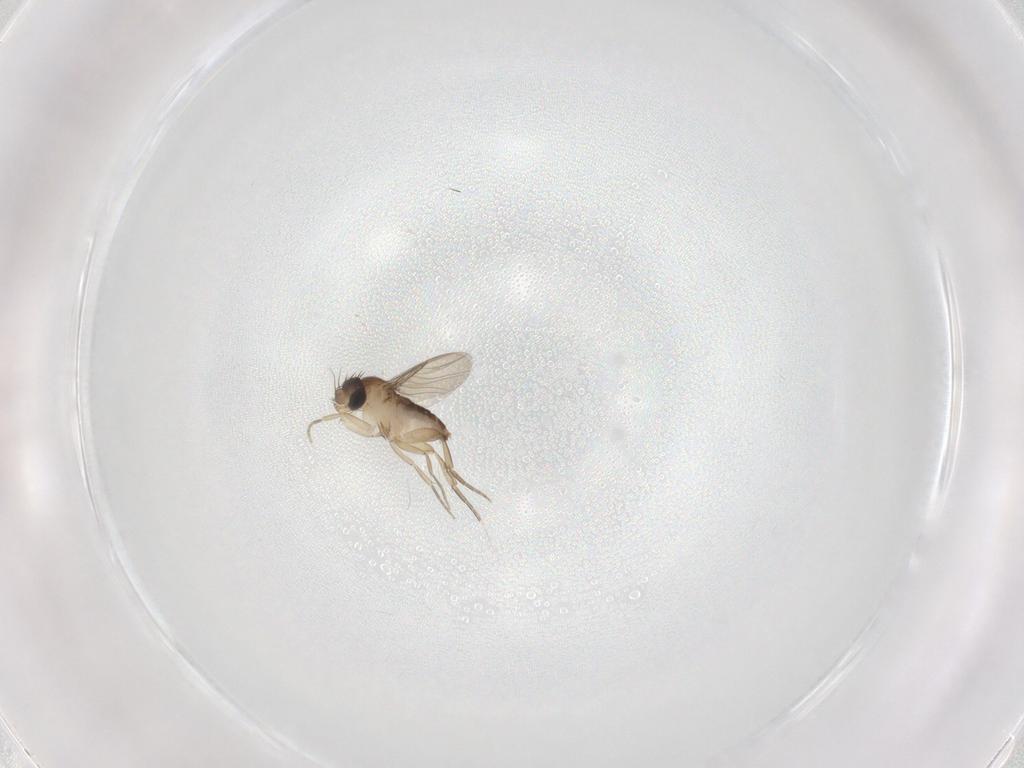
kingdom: Animalia
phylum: Arthropoda
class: Insecta
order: Diptera
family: Phoridae
